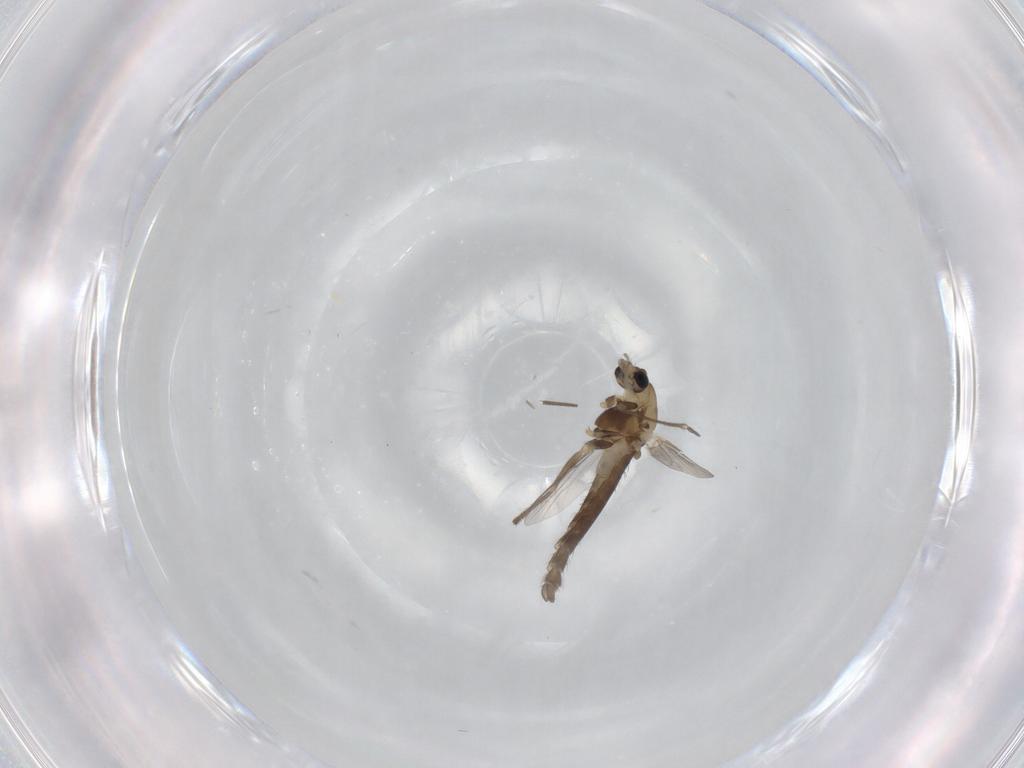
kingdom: Animalia
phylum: Arthropoda
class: Insecta
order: Diptera
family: Chironomidae
